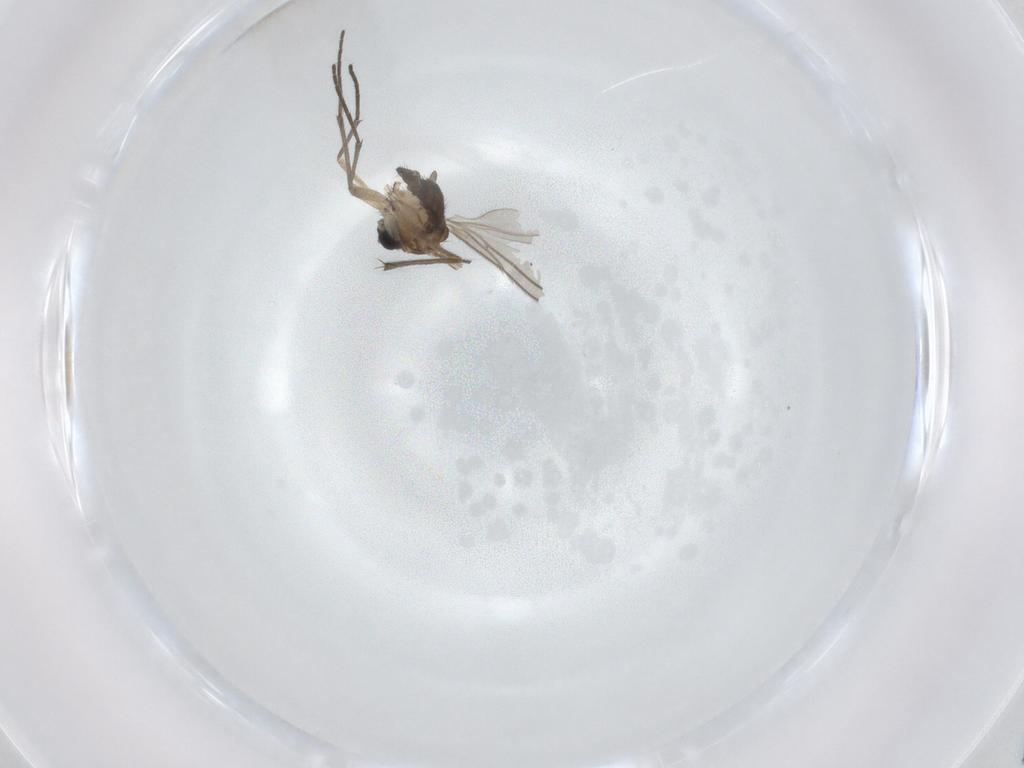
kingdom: Animalia
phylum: Arthropoda
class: Insecta
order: Diptera
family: Sciaridae
